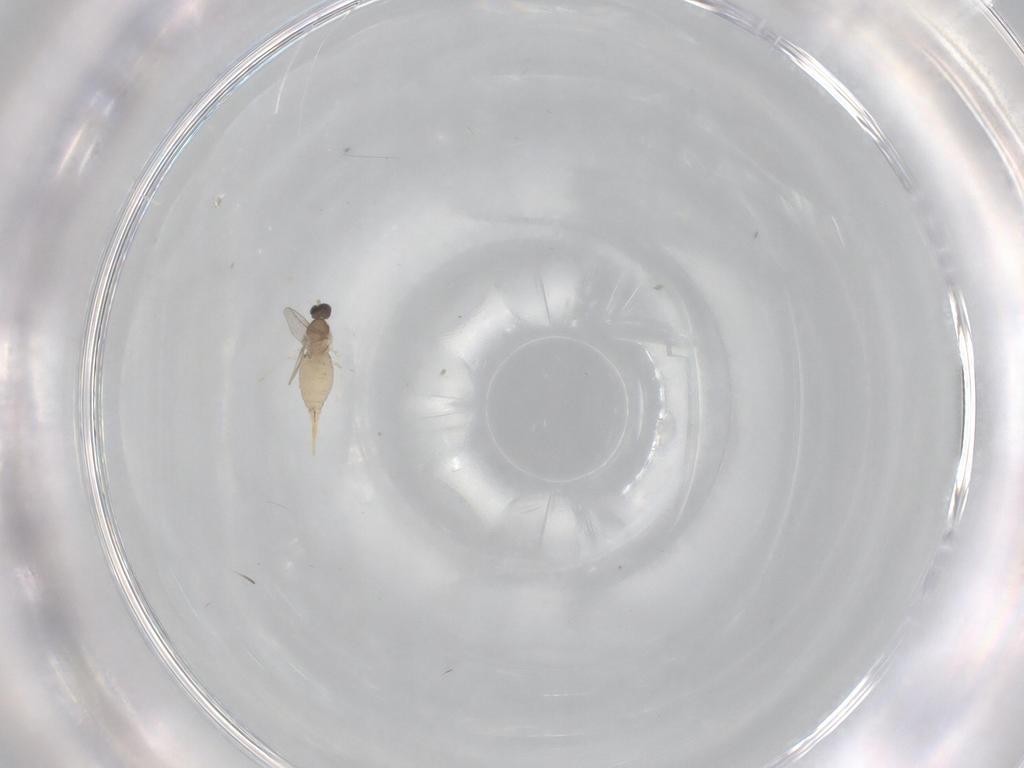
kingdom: Animalia
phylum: Arthropoda
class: Insecta
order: Diptera
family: Cecidomyiidae
